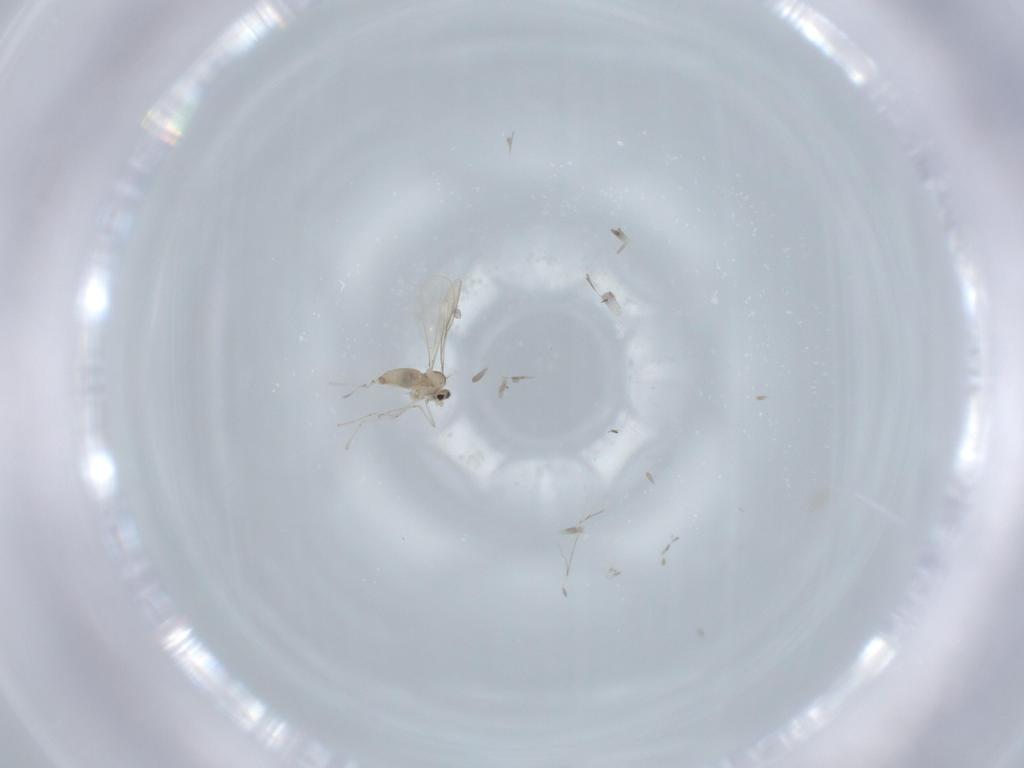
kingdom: Animalia
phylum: Arthropoda
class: Insecta
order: Diptera
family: Cecidomyiidae
